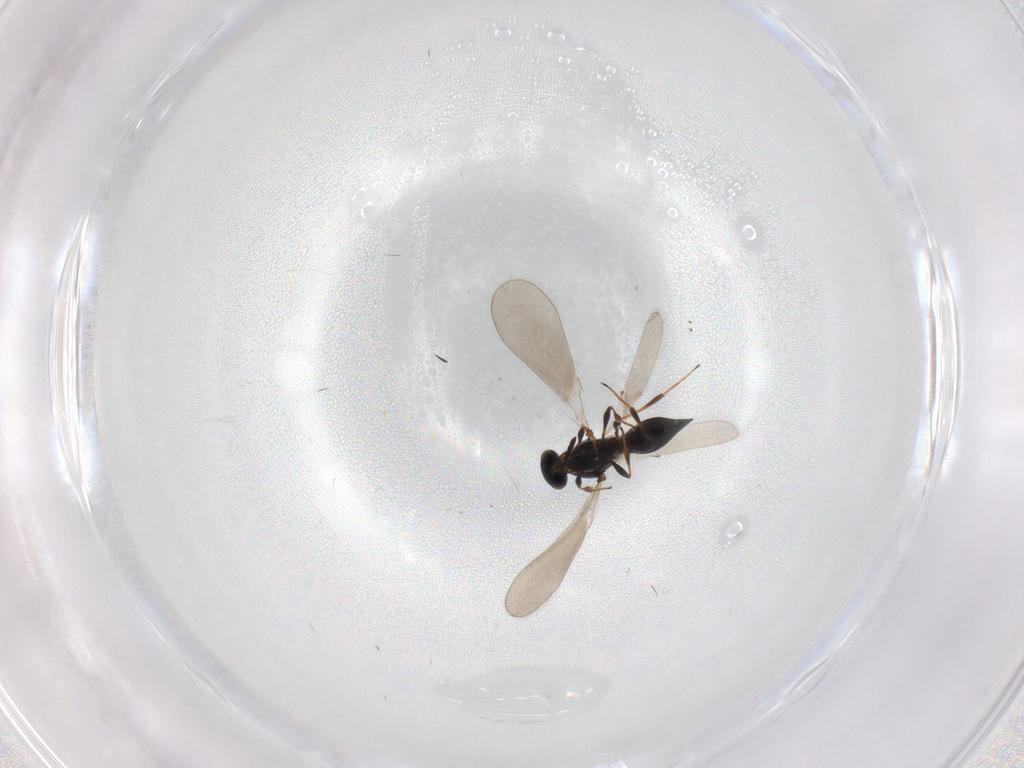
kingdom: Animalia
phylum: Arthropoda
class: Insecta
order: Hymenoptera
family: Platygastridae
